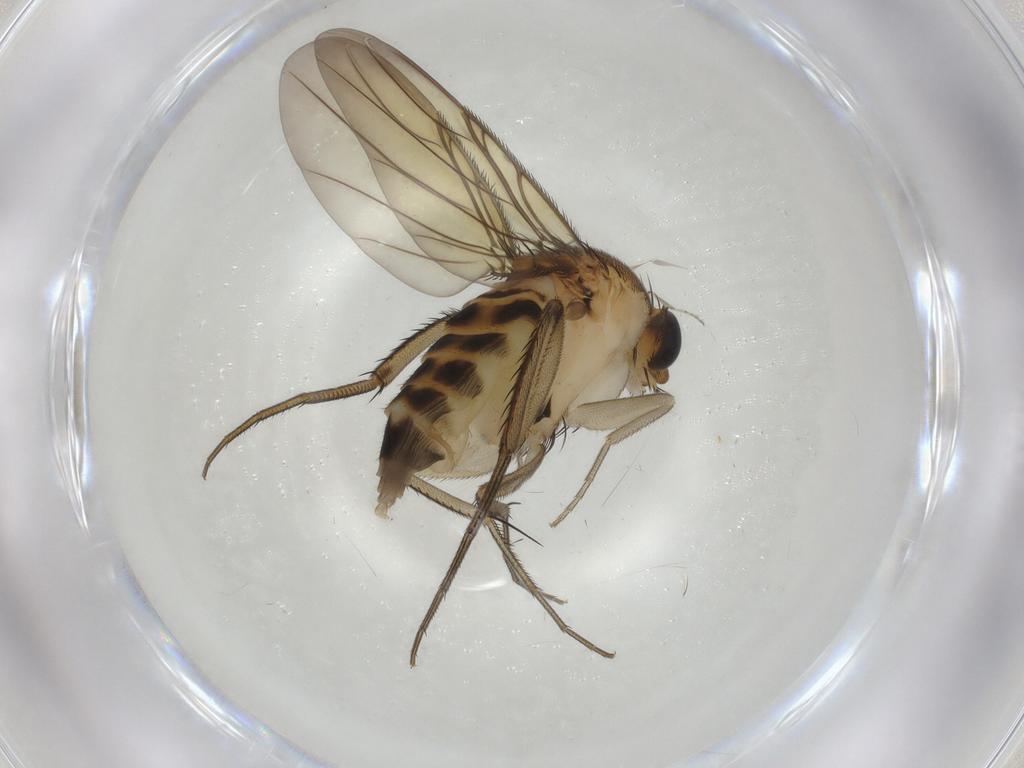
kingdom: Animalia
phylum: Arthropoda
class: Insecta
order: Diptera
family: Phoridae
